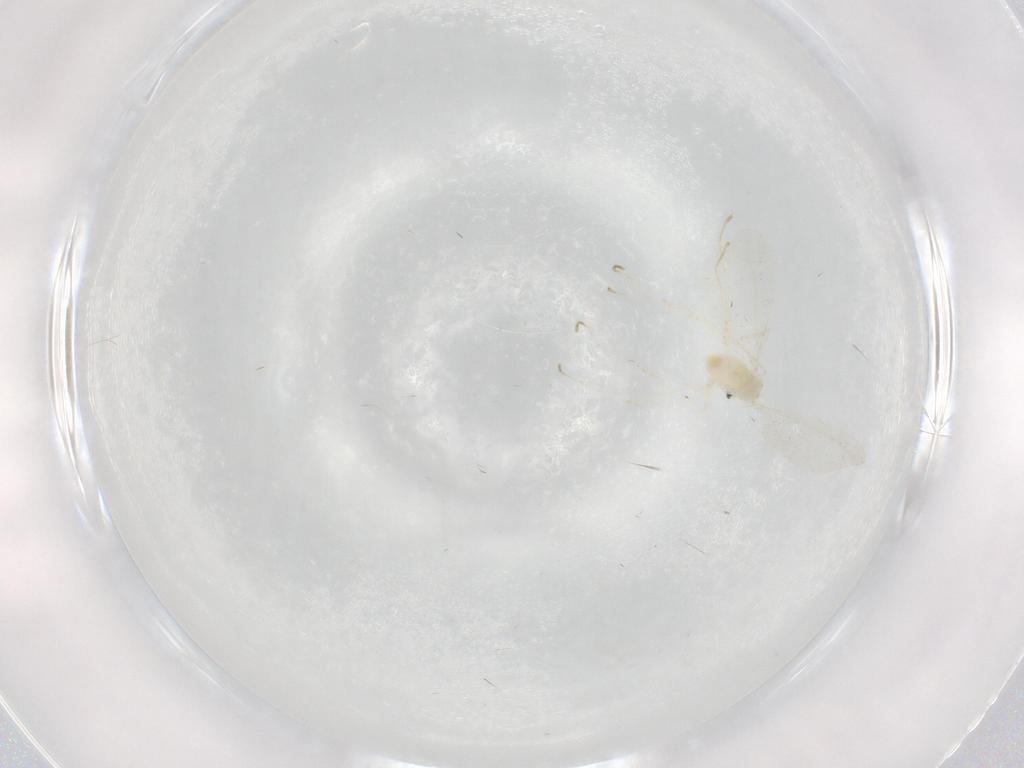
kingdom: Animalia
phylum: Arthropoda
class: Insecta
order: Diptera
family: Cecidomyiidae
